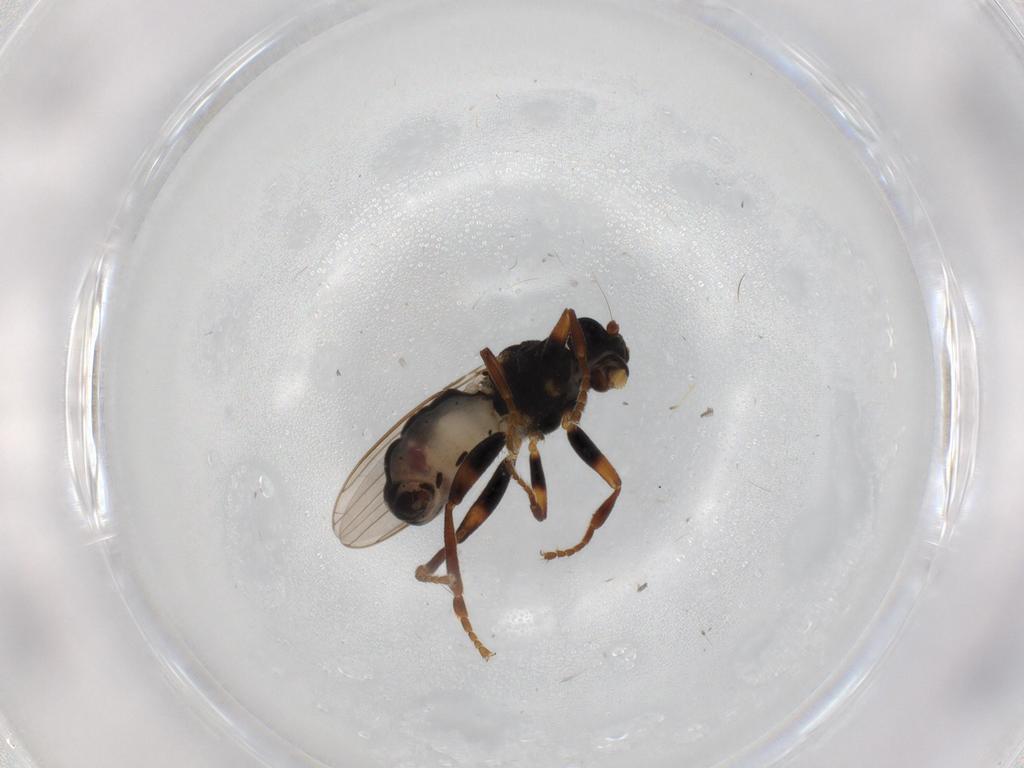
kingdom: Animalia
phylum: Arthropoda
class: Insecta
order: Diptera
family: Sphaeroceridae
